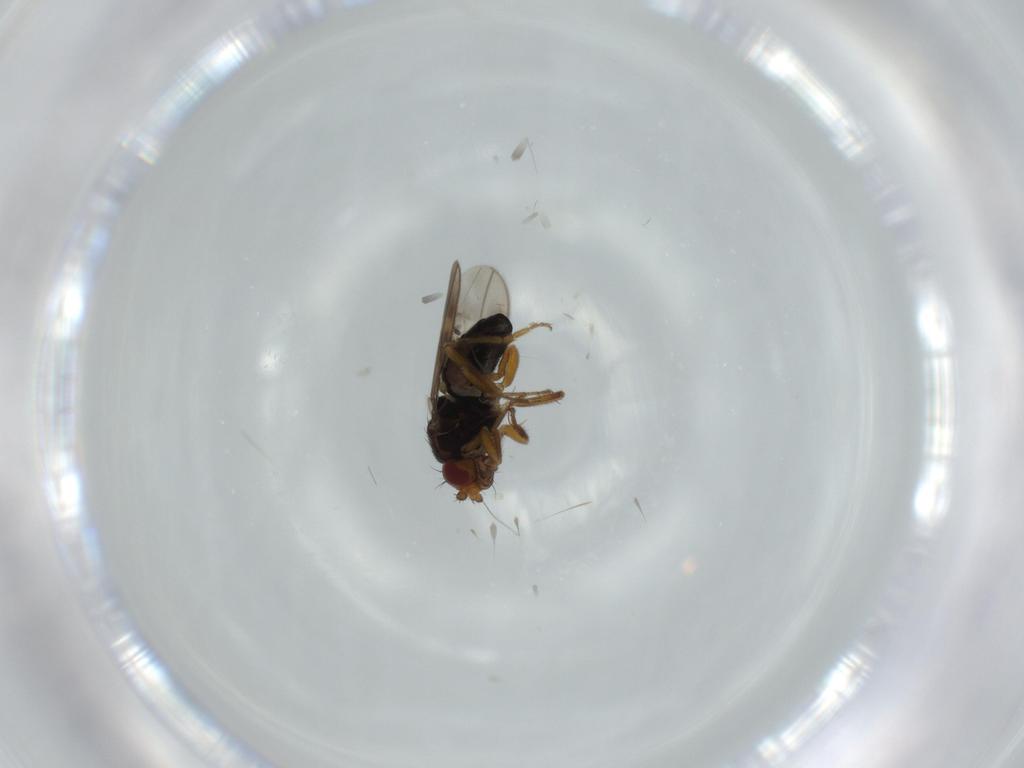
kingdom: Animalia
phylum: Arthropoda
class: Insecta
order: Diptera
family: Sphaeroceridae
